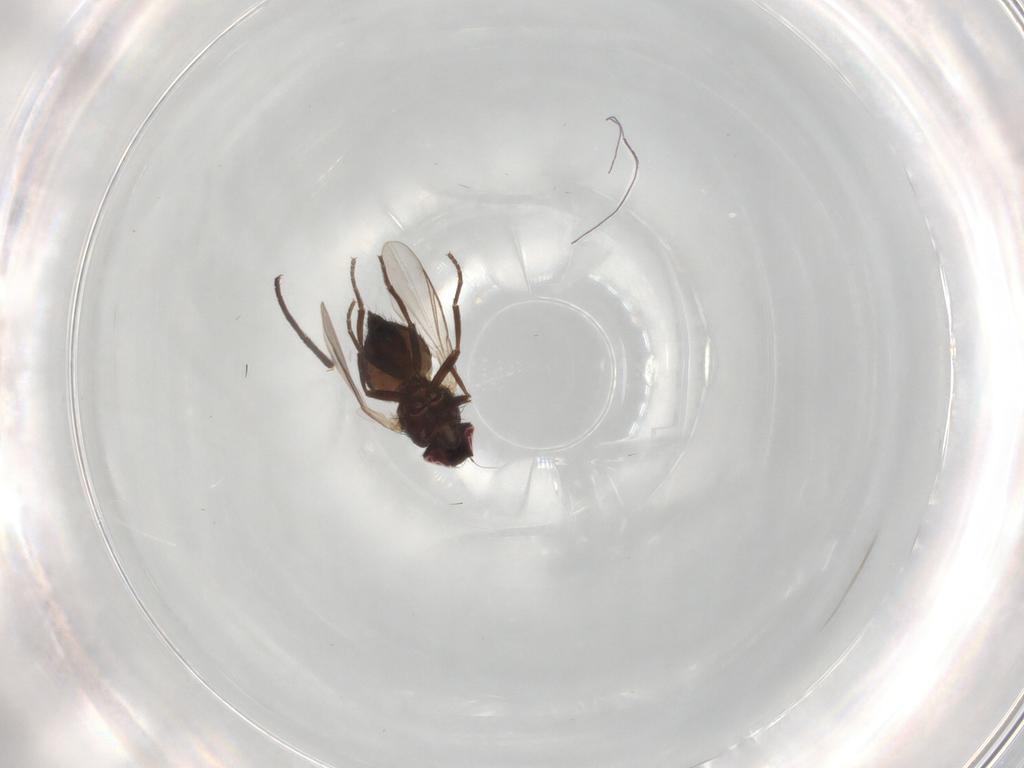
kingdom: Animalia
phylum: Arthropoda
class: Insecta
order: Diptera
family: Dolichopodidae
